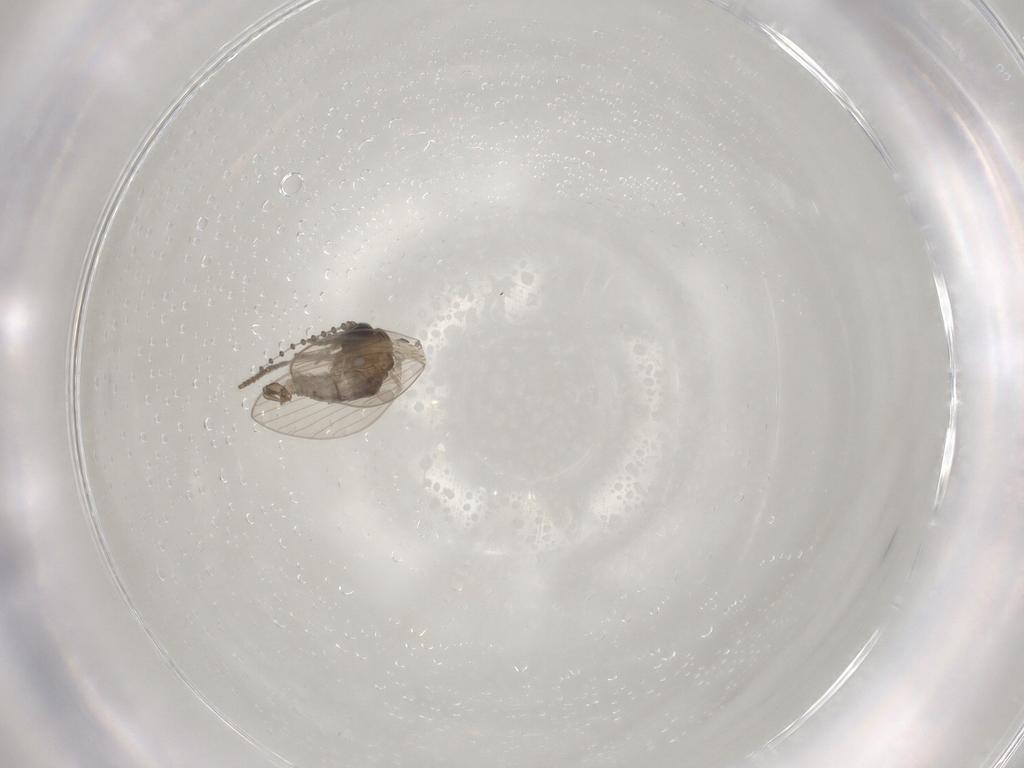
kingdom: Animalia
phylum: Arthropoda
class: Insecta
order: Diptera
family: Psychodidae
